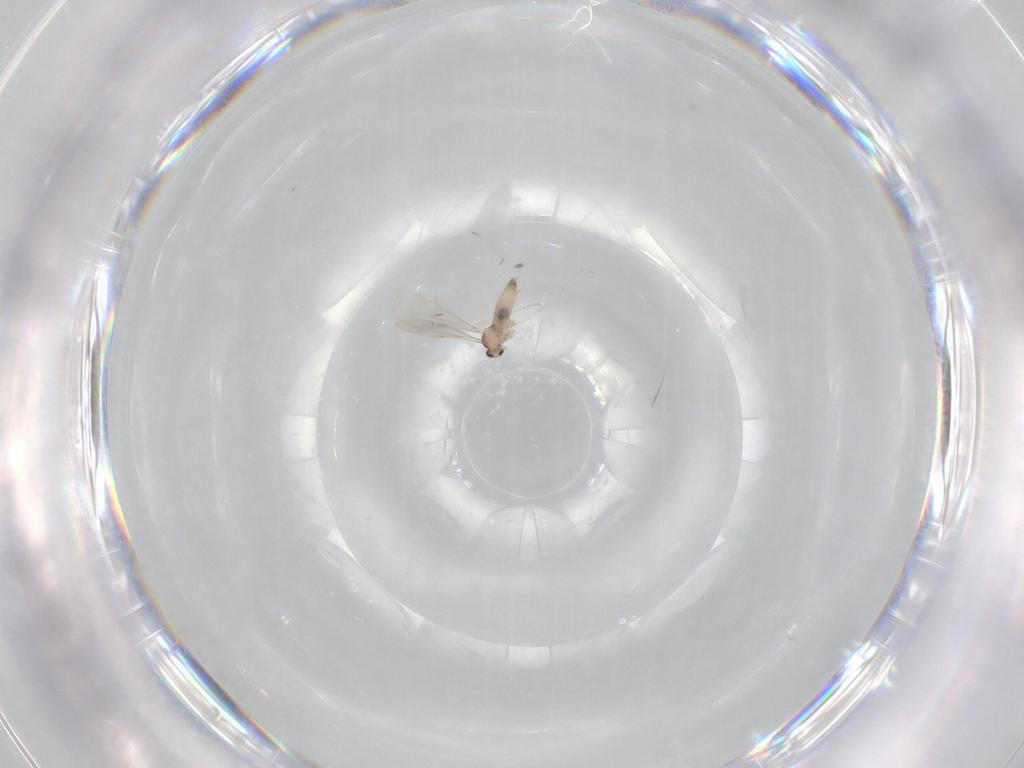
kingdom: Animalia
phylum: Arthropoda
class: Insecta
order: Diptera
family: Cecidomyiidae
